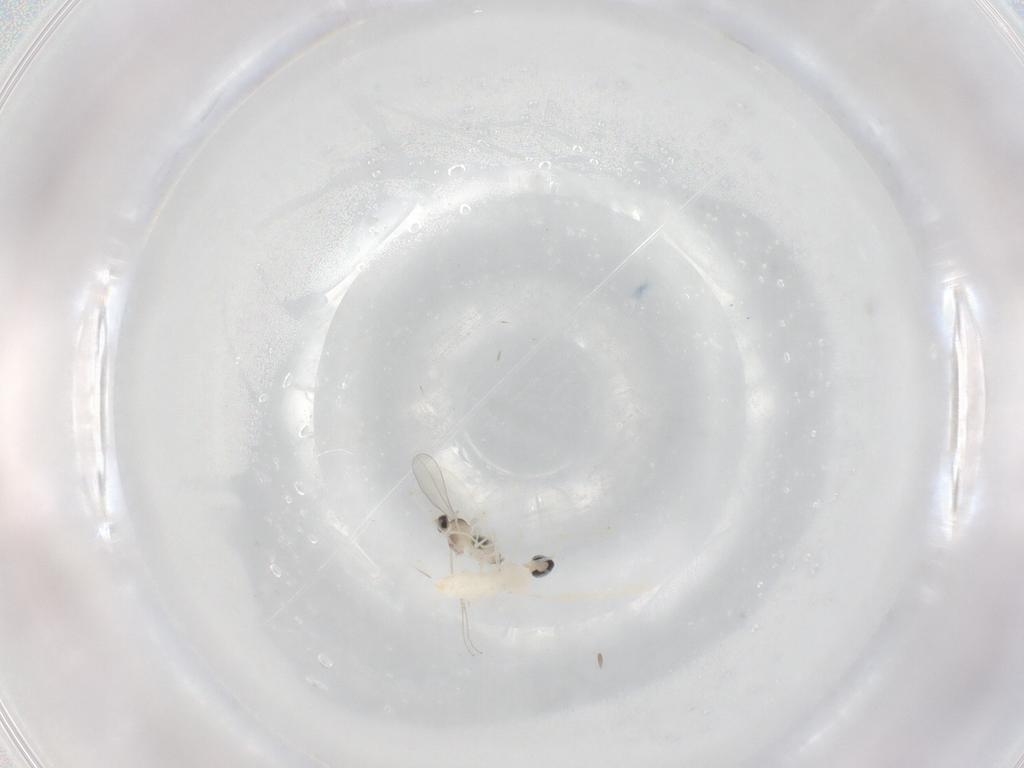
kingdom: Animalia
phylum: Arthropoda
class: Insecta
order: Diptera
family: Cecidomyiidae
